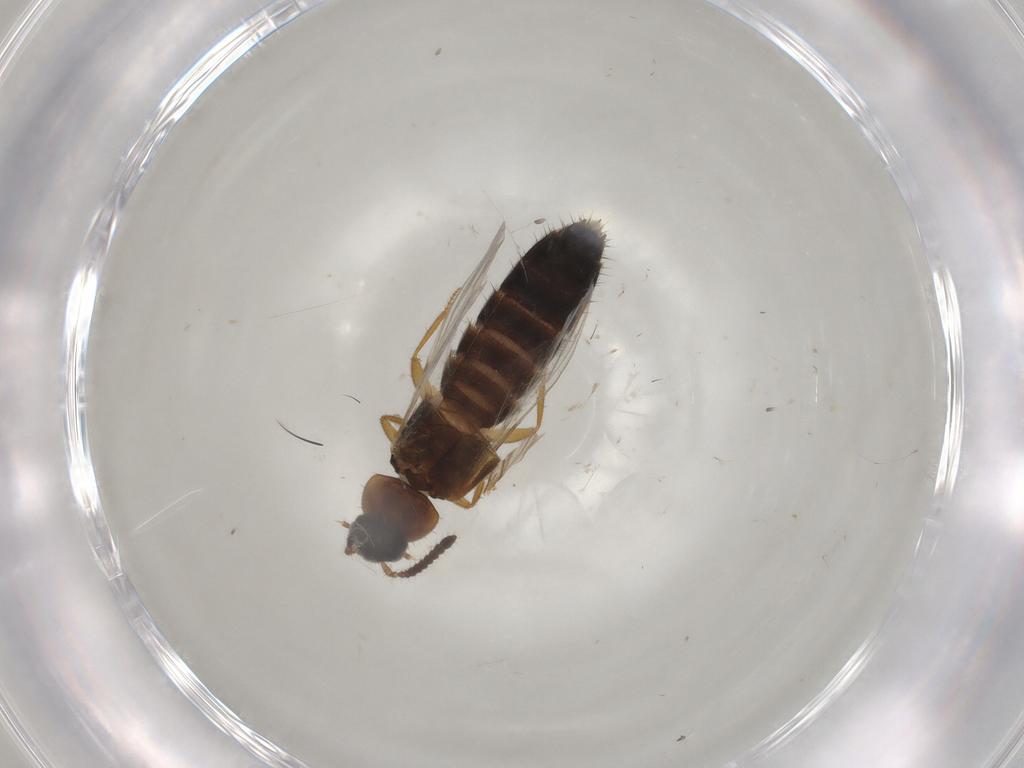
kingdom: Animalia
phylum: Arthropoda
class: Insecta
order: Coleoptera
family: Staphylinidae
